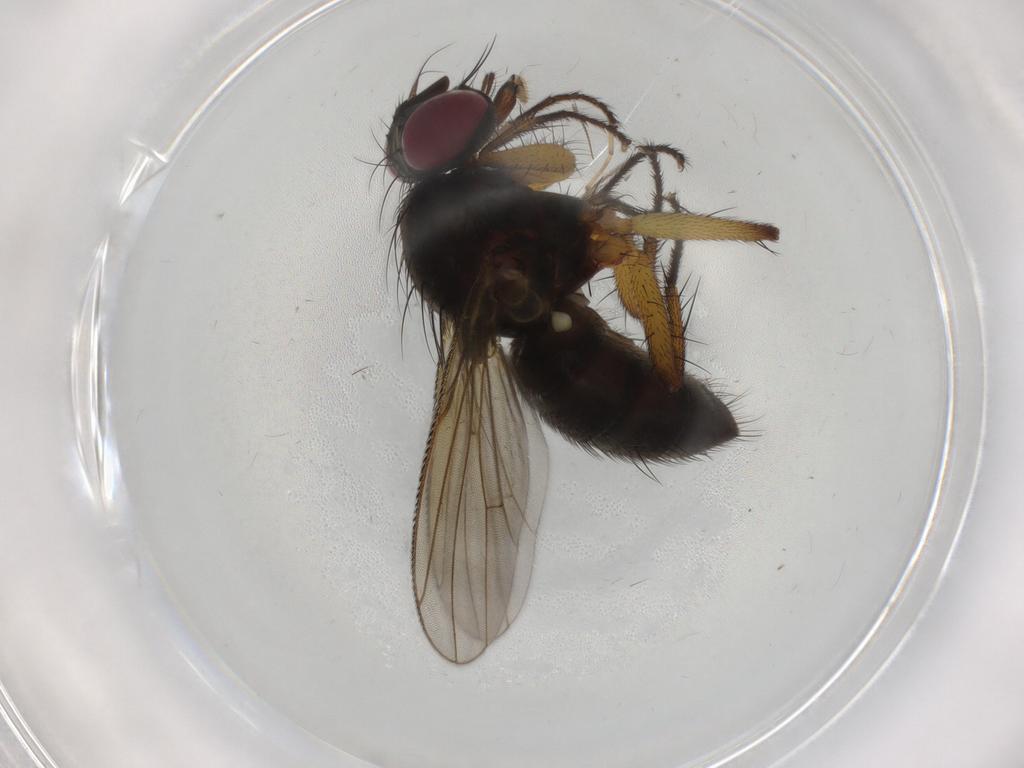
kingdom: Animalia
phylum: Arthropoda
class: Insecta
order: Diptera
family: Muscidae
